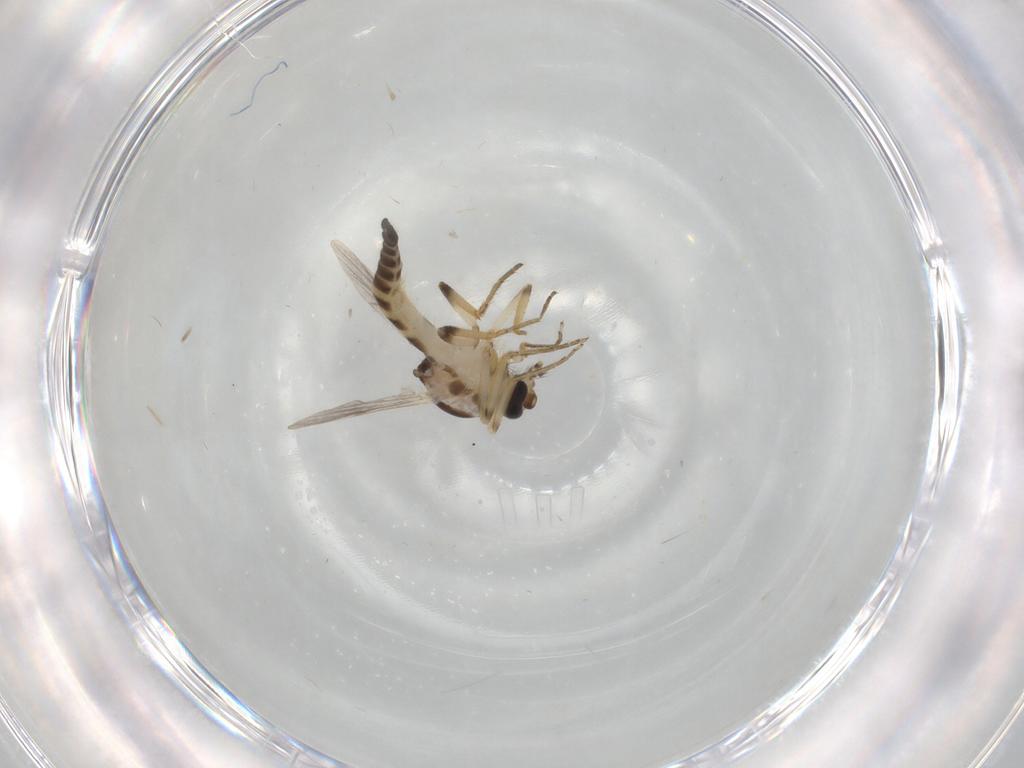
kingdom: Animalia
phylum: Arthropoda
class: Insecta
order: Diptera
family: Ceratopogonidae
